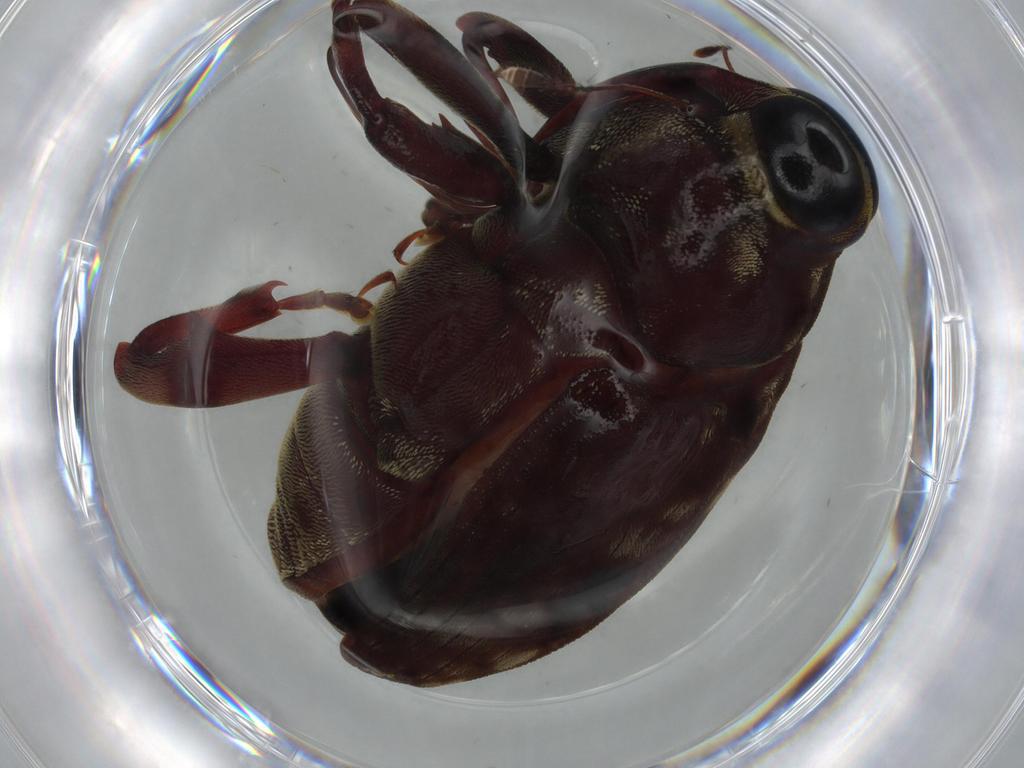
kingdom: Animalia
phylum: Arthropoda
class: Insecta
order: Coleoptera
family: Curculionidae
